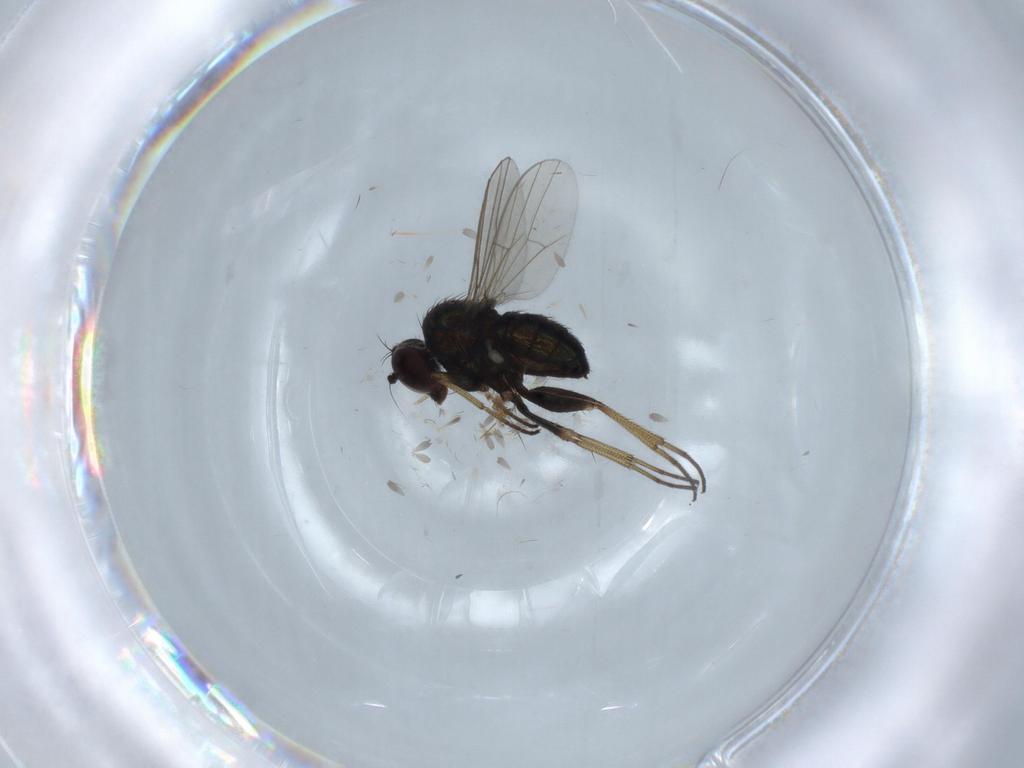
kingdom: Animalia
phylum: Arthropoda
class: Insecta
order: Diptera
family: Dolichopodidae
